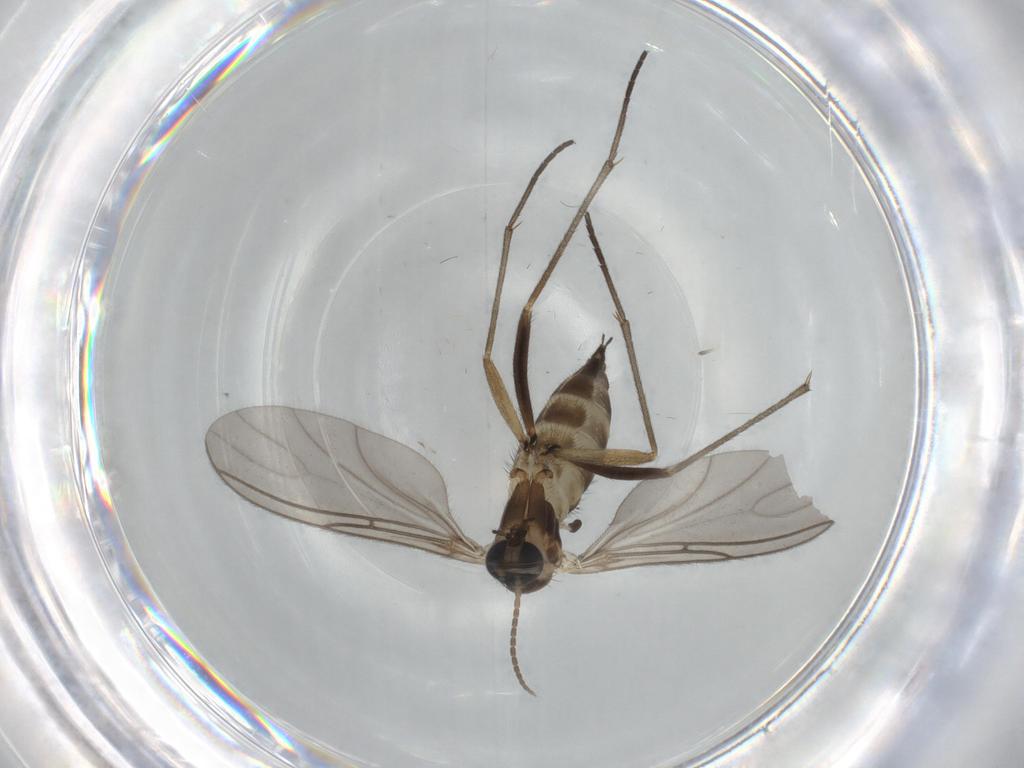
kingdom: Animalia
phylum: Arthropoda
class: Insecta
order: Diptera
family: Sciaridae
